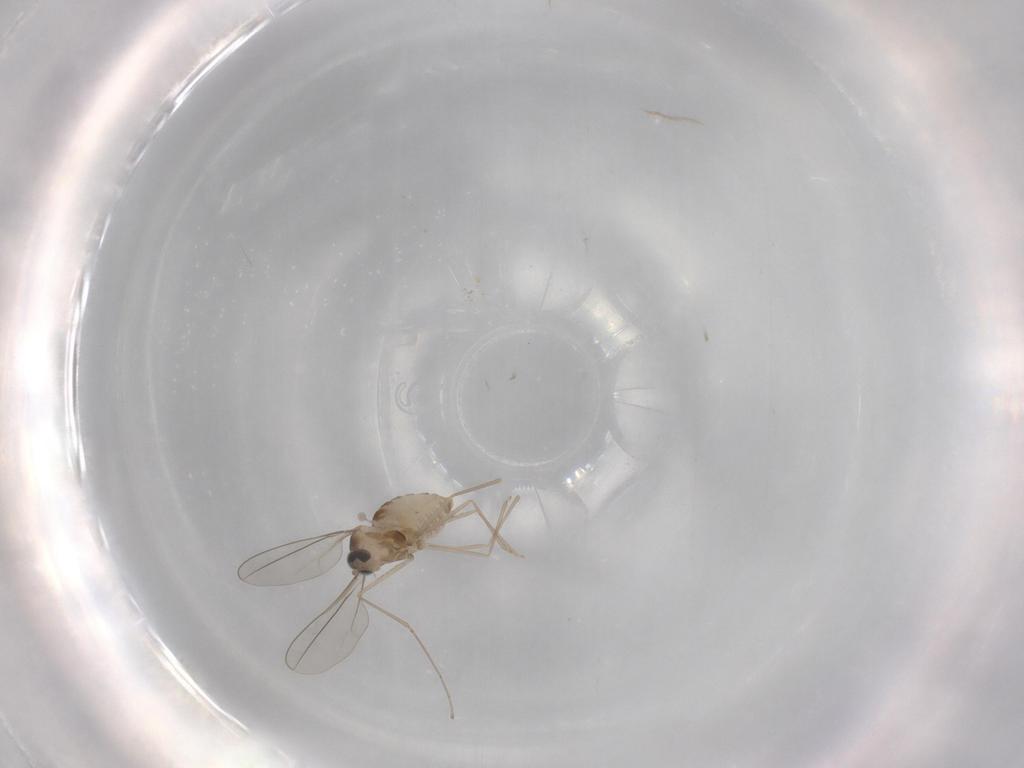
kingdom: Animalia
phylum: Arthropoda
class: Insecta
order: Diptera
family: Cecidomyiidae
